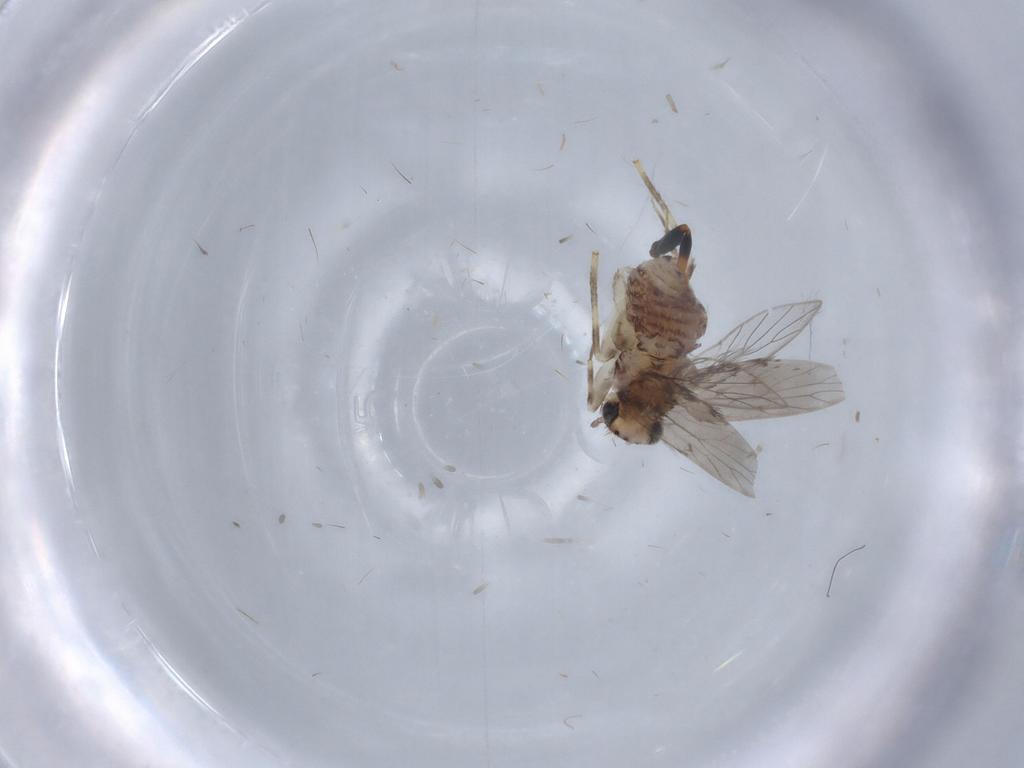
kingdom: Animalia
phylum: Arthropoda
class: Insecta
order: Psocodea
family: Lepidopsocidae
